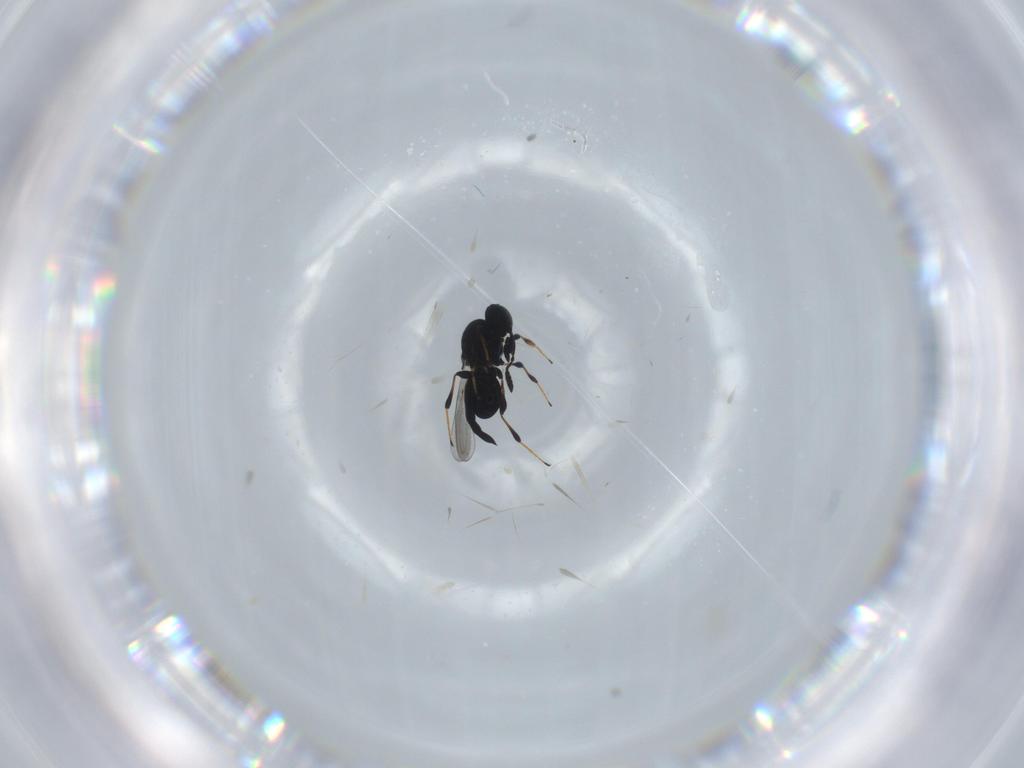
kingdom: Animalia
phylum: Arthropoda
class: Insecta
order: Hymenoptera
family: Platygastridae
